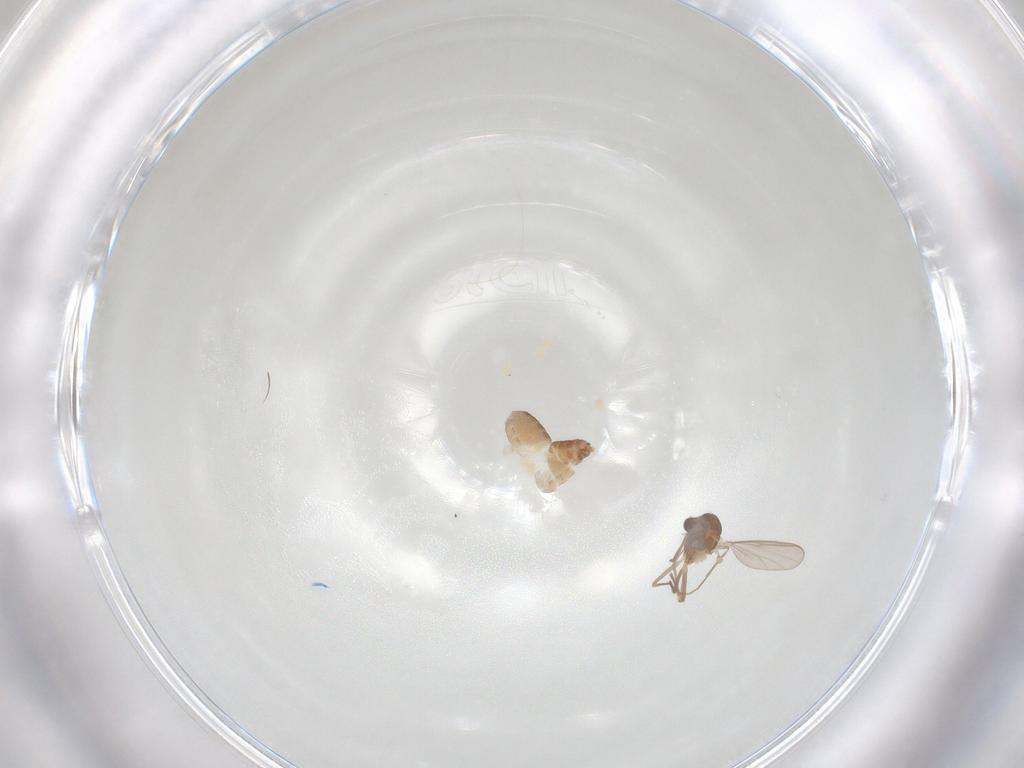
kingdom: Animalia
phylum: Arthropoda
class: Insecta
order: Diptera
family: Chironomidae
